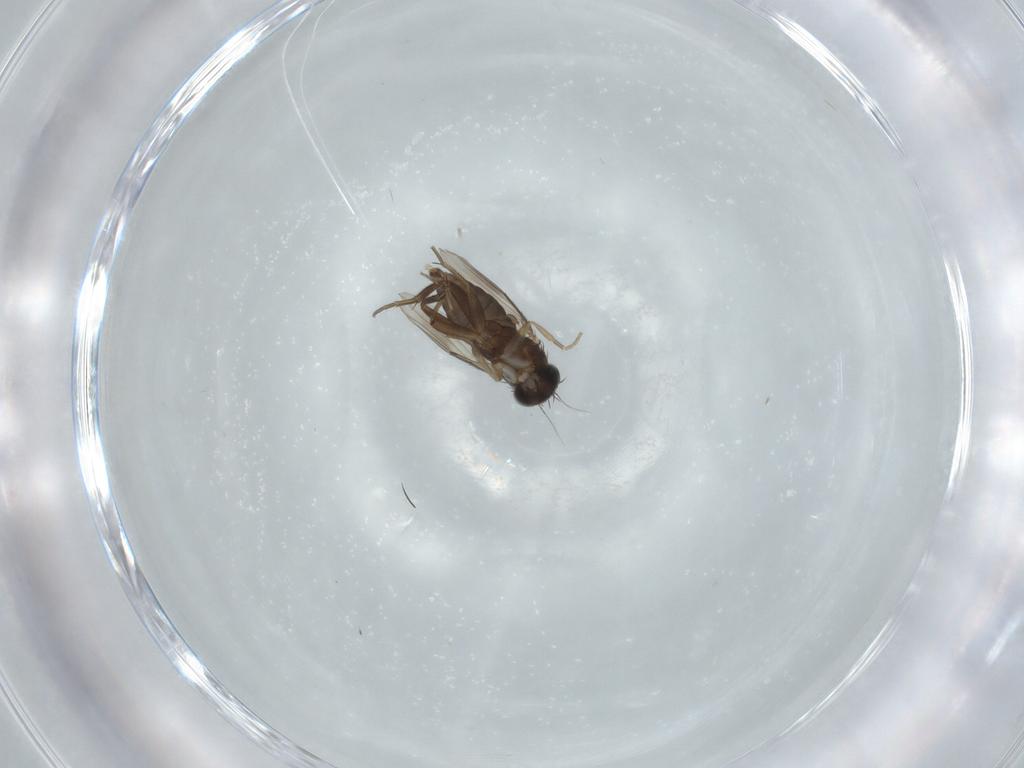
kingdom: Animalia
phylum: Arthropoda
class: Insecta
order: Diptera
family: Phoridae
